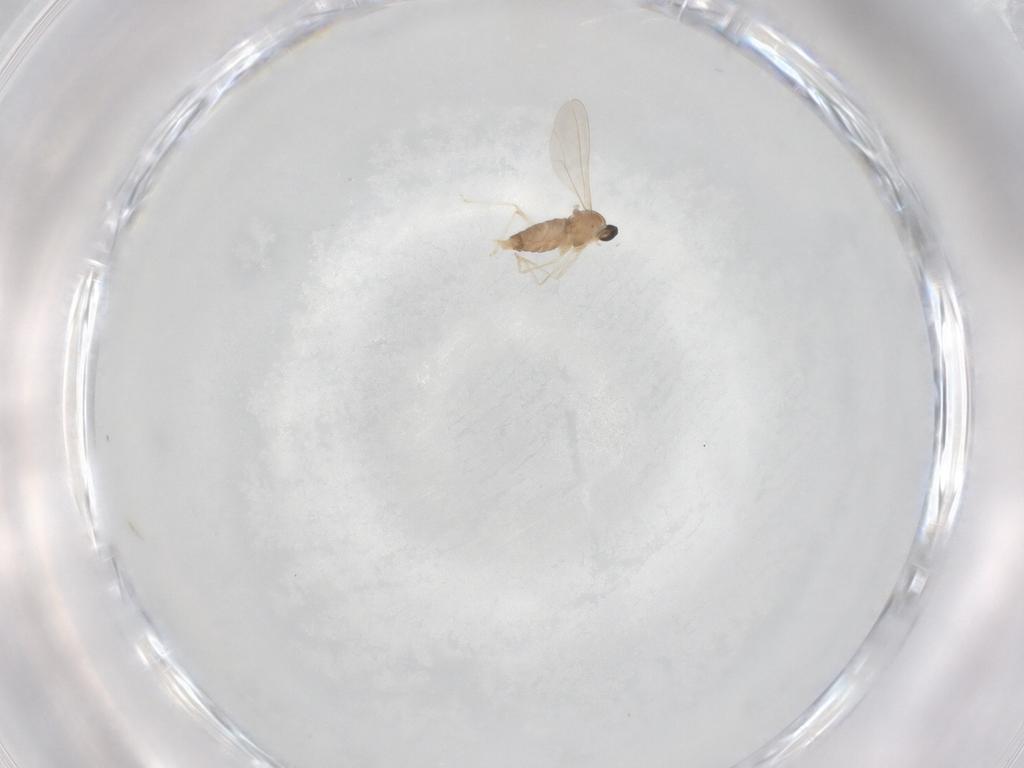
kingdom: Animalia
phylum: Arthropoda
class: Insecta
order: Diptera
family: Cecidomyiidae
